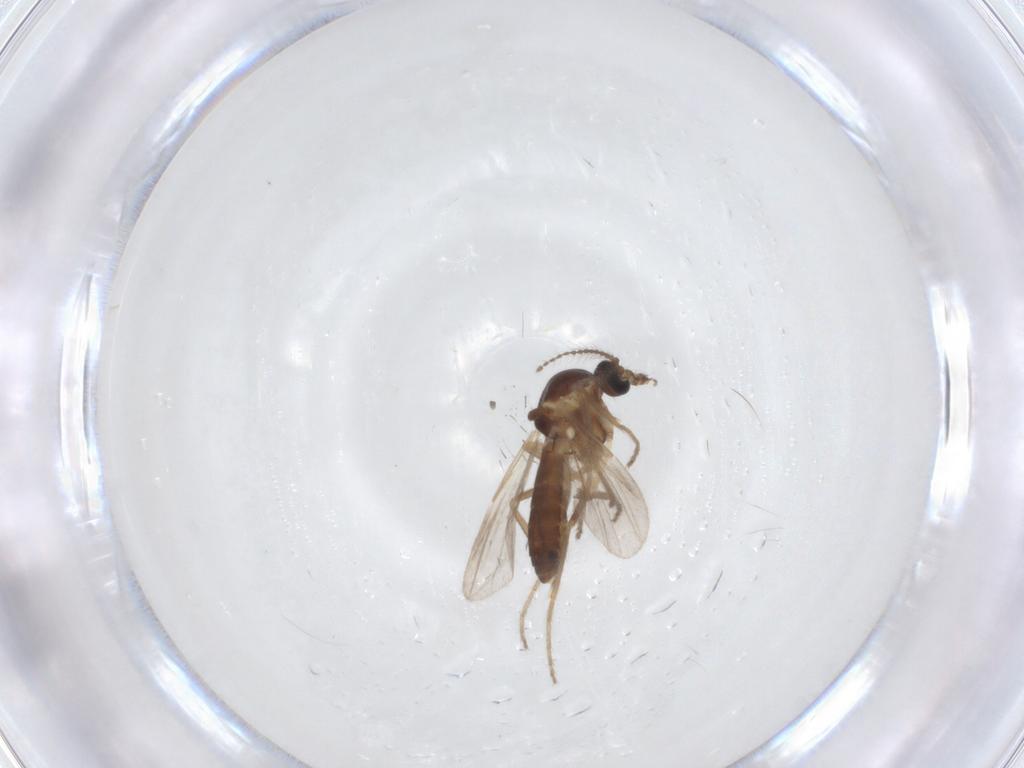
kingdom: Animalia
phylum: Arthropoda
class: Insecta
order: Diptera
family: Ceratopogonidae
